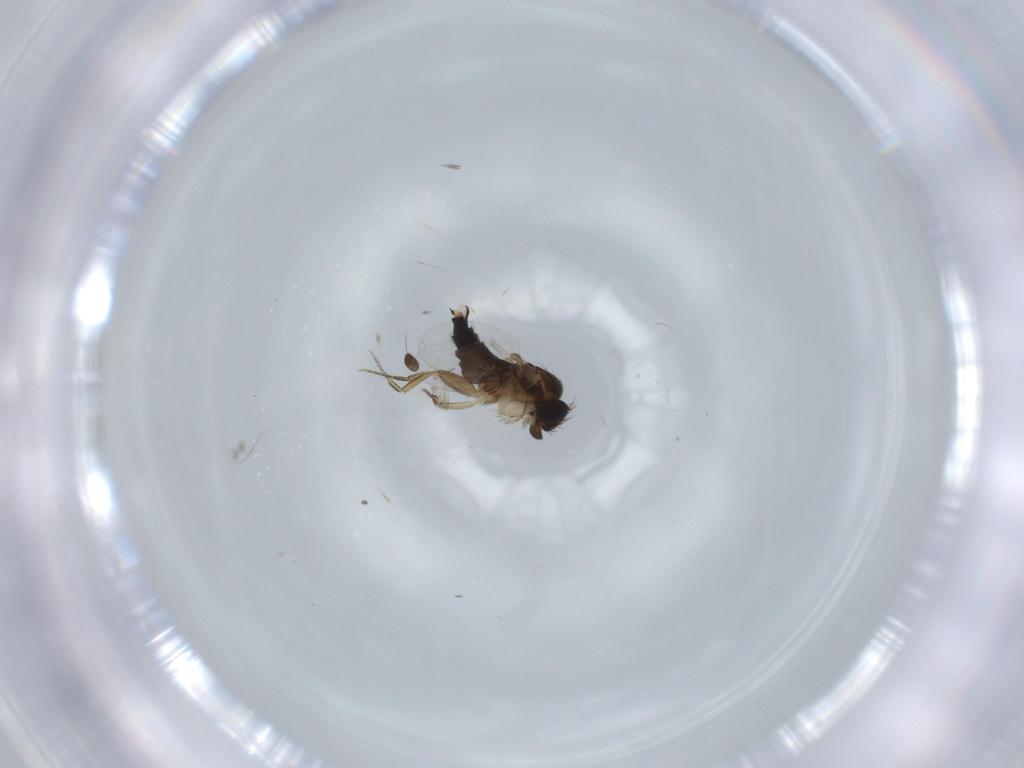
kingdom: Animalia
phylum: Arthropoda
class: Insecta
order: Diptera
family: Phoridae
